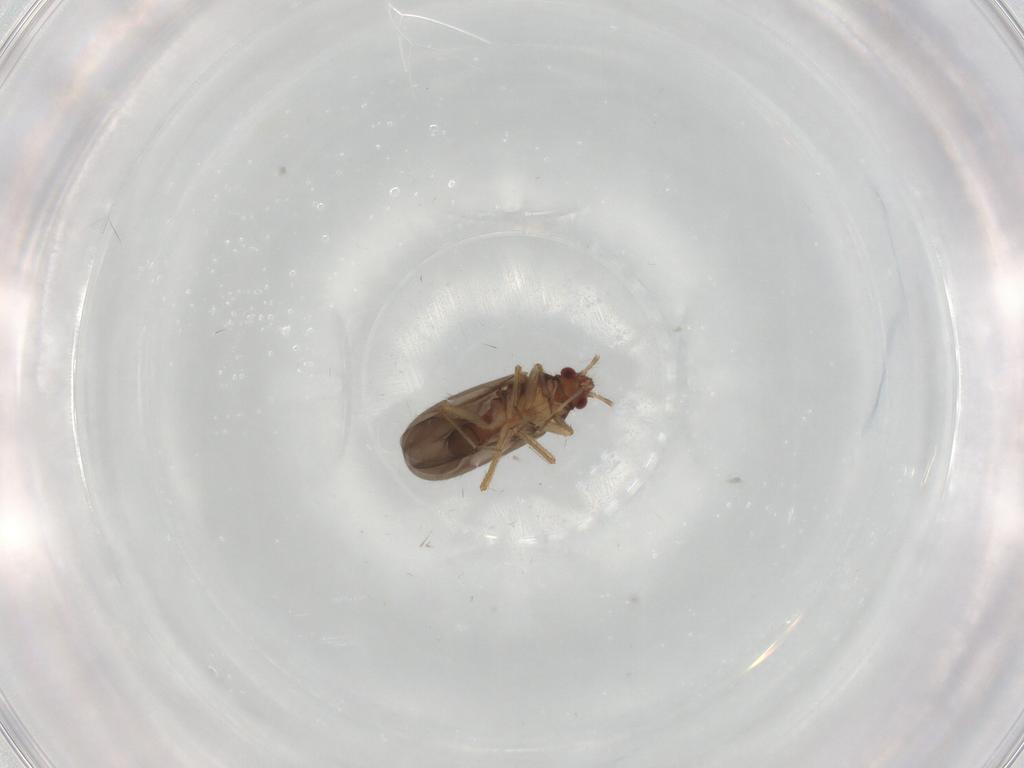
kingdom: Animalia
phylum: Arthropoda
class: Insecta
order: Hemiptera
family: Ceratocombidae
